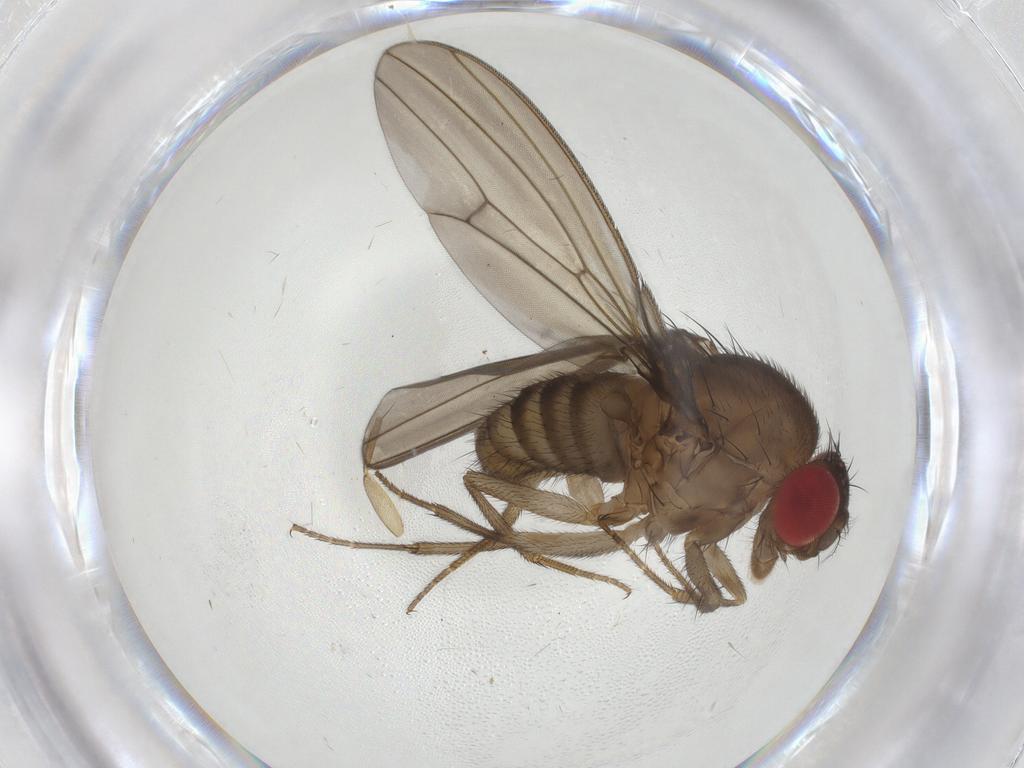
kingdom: Animalia
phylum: Arthropoda
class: Insecta
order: Diptera
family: Drosophilidae
